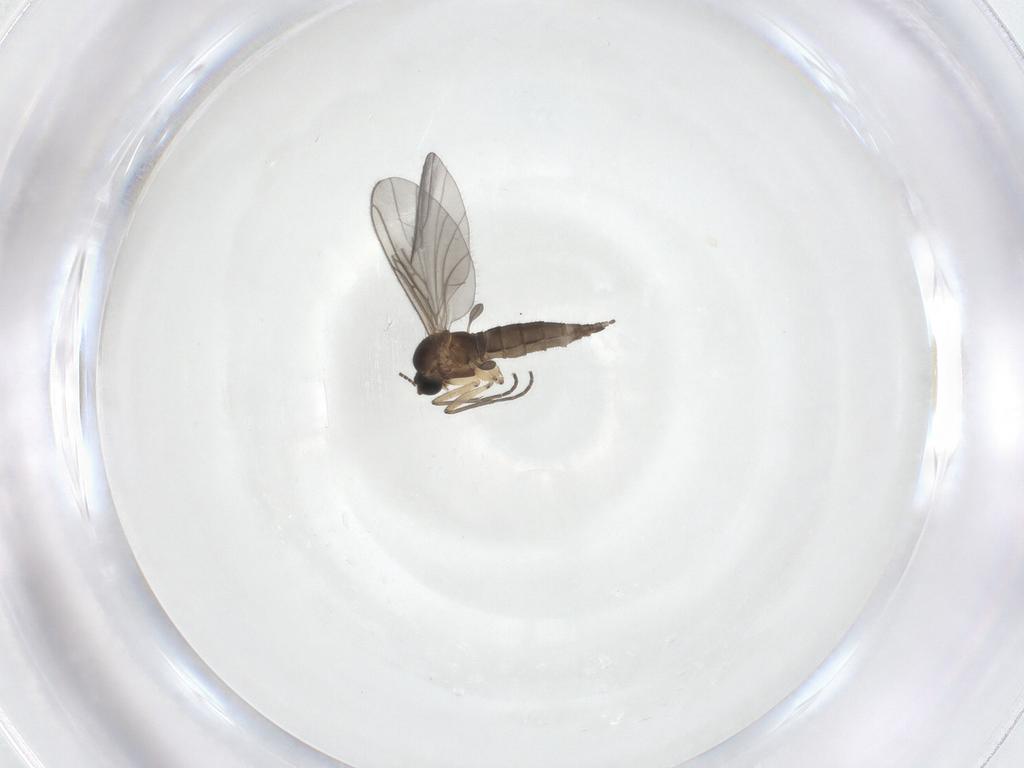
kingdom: Animalia
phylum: Arthropoda
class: Insecta
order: Diptera
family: Sciaridae
